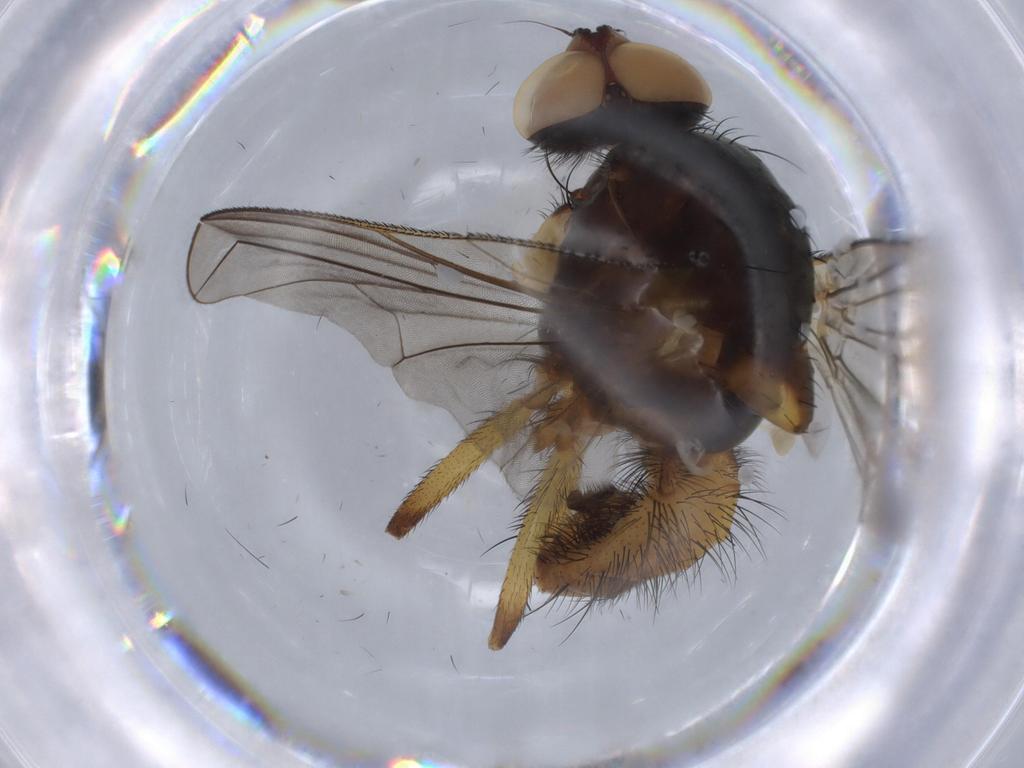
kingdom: Animalia
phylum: Arthropoda
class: Insecta
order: Diptera
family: Anthomyiidae
